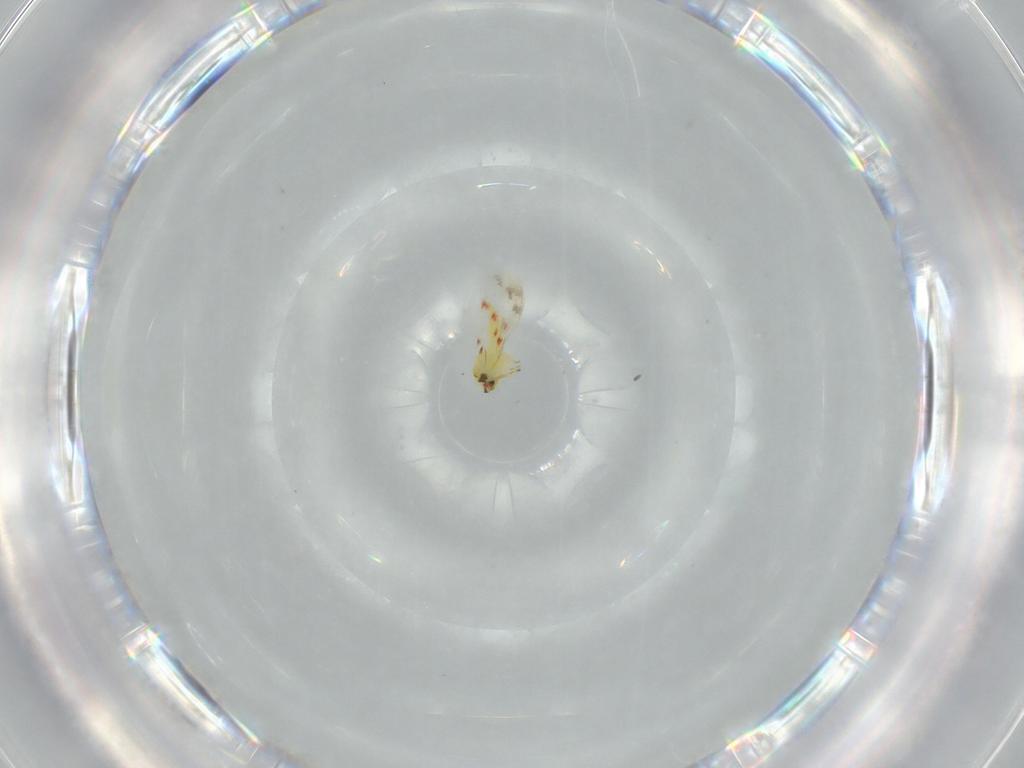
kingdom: Animalia
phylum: Arthropoda
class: Insecta
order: Hemiptera
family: Aleyrodidae
